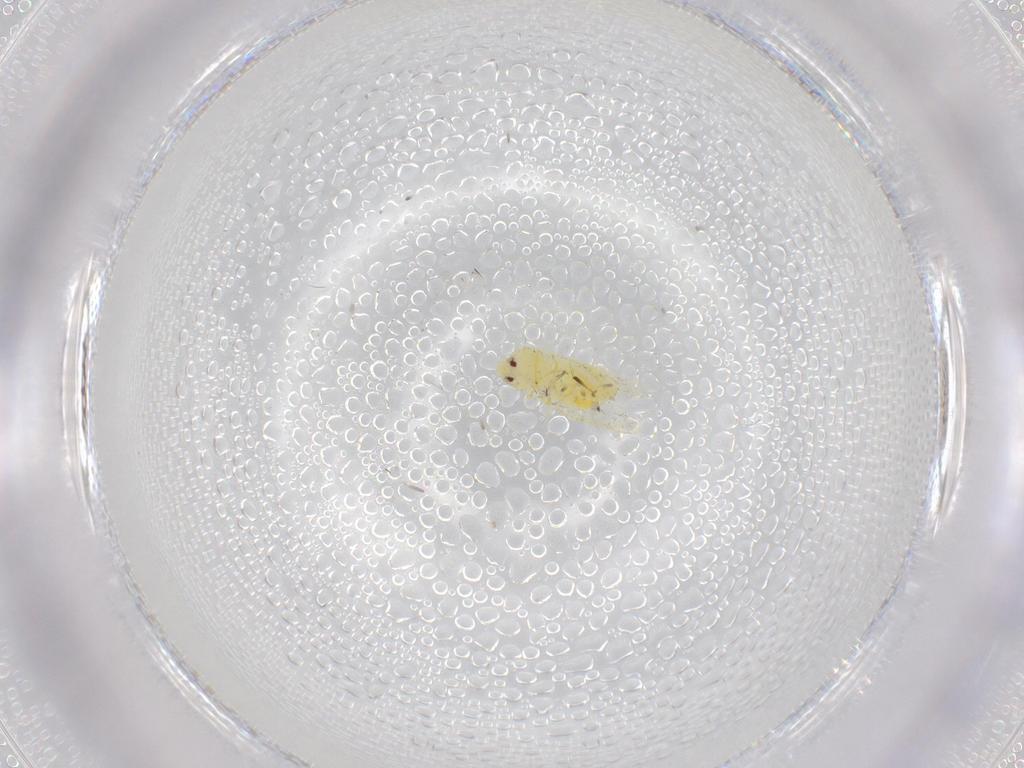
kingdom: Animalia
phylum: Arthropoda
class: Insecta
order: Hemiptera
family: Aleyrodidae
